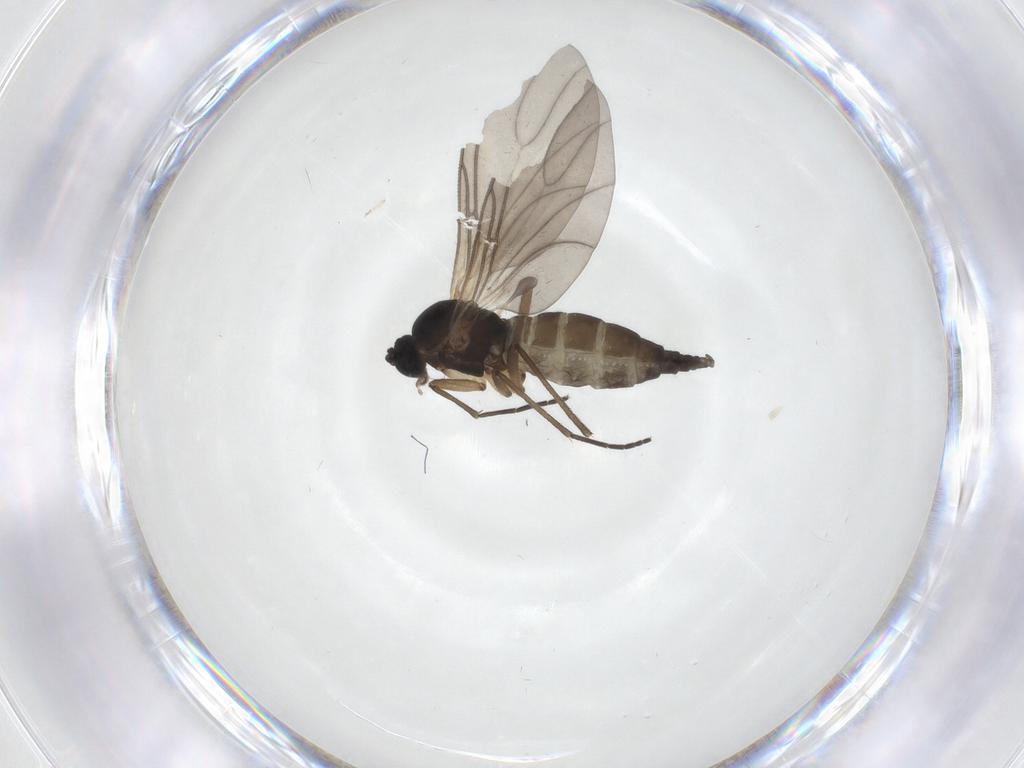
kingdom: Animalia
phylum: Arthropoda
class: Insecta
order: Diptera
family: Sciaridae
